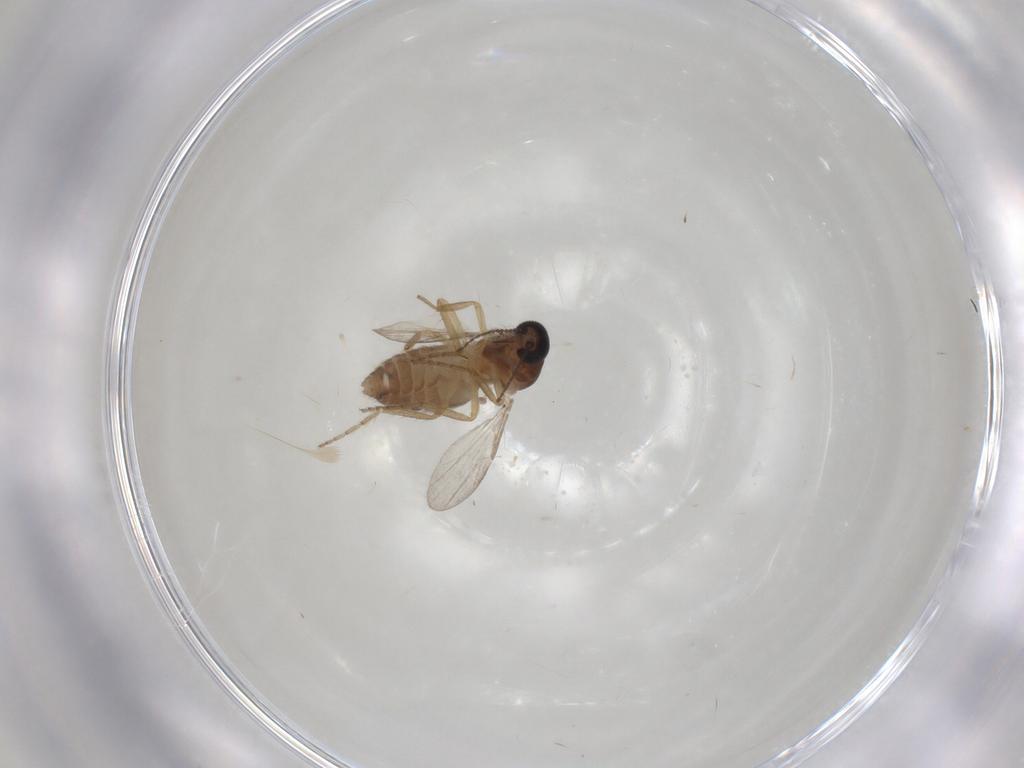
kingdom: Animalia
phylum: Arthropoda
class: Insecta
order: Diptera
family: Ceratopogonidae
